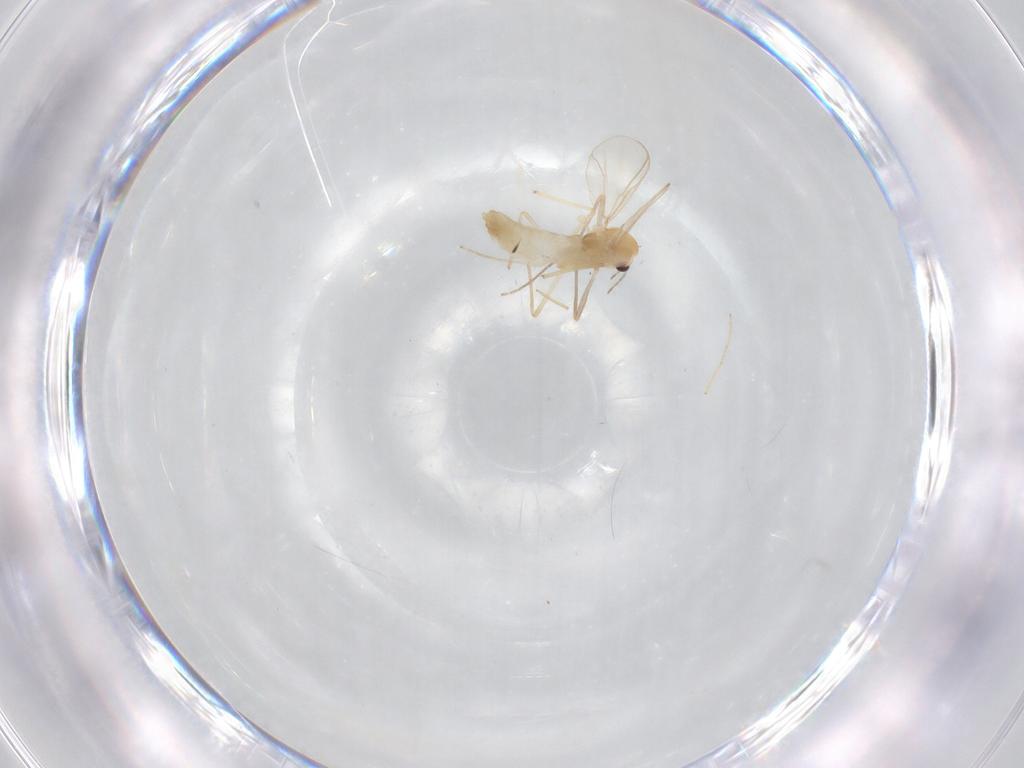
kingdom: Animalia
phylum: Arthropoda
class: Insecta
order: Diptera
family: Chironomidae
